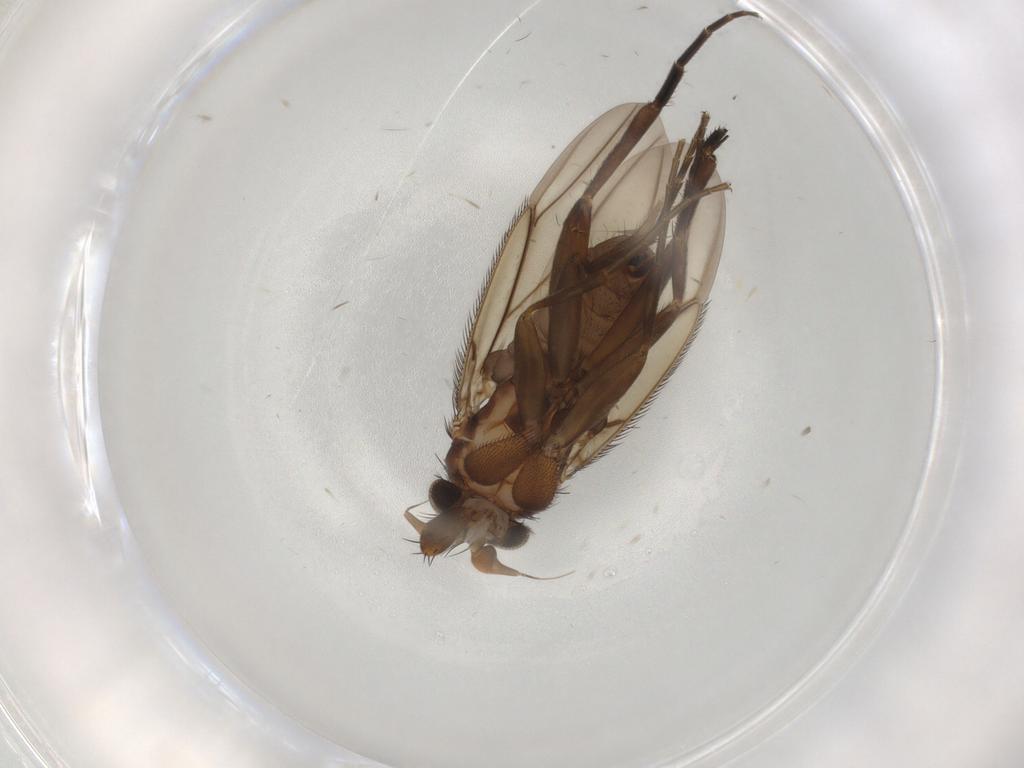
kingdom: Animalia
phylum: Arthropoda
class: Insecta
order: Diptera
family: Phoridae
